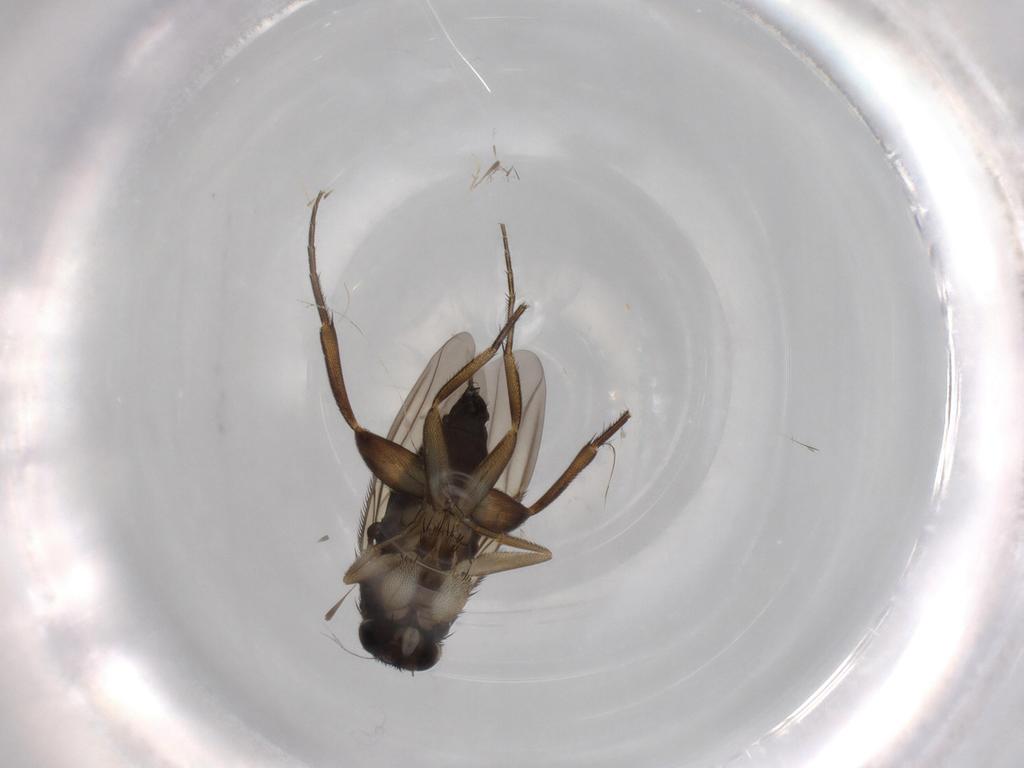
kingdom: Animalia
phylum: Arthropoda
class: Insecta
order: Diptera
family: Phoridae
